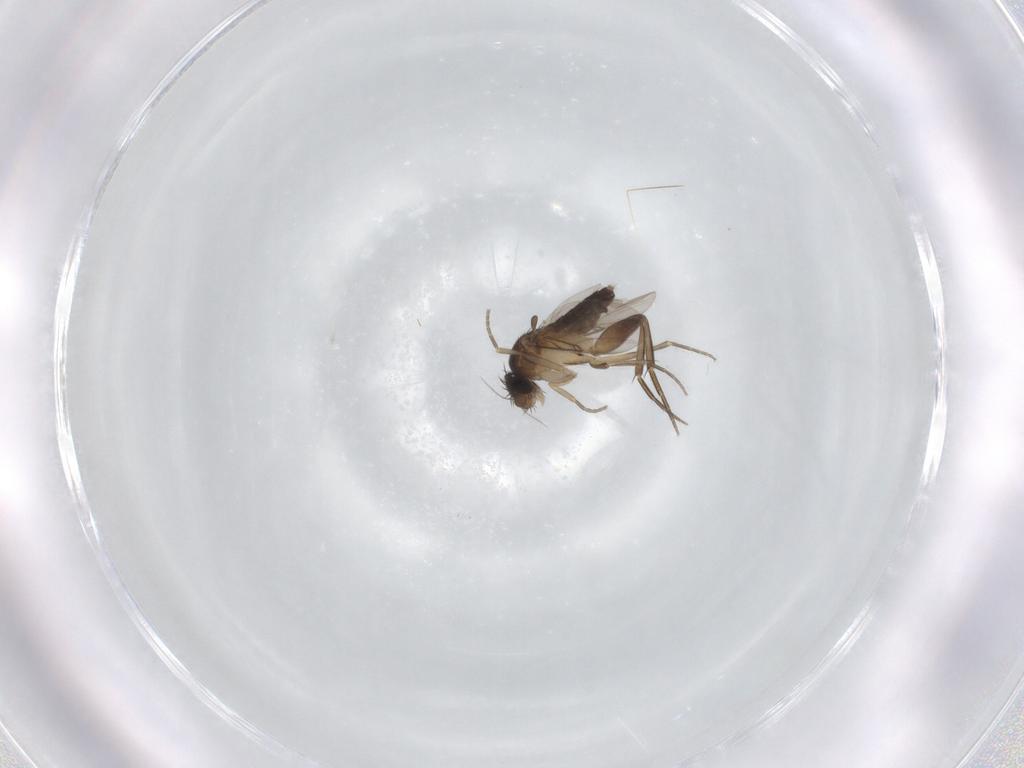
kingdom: Animalia
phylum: Arthropoda
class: Insecta
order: Diptera
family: Phoridae
